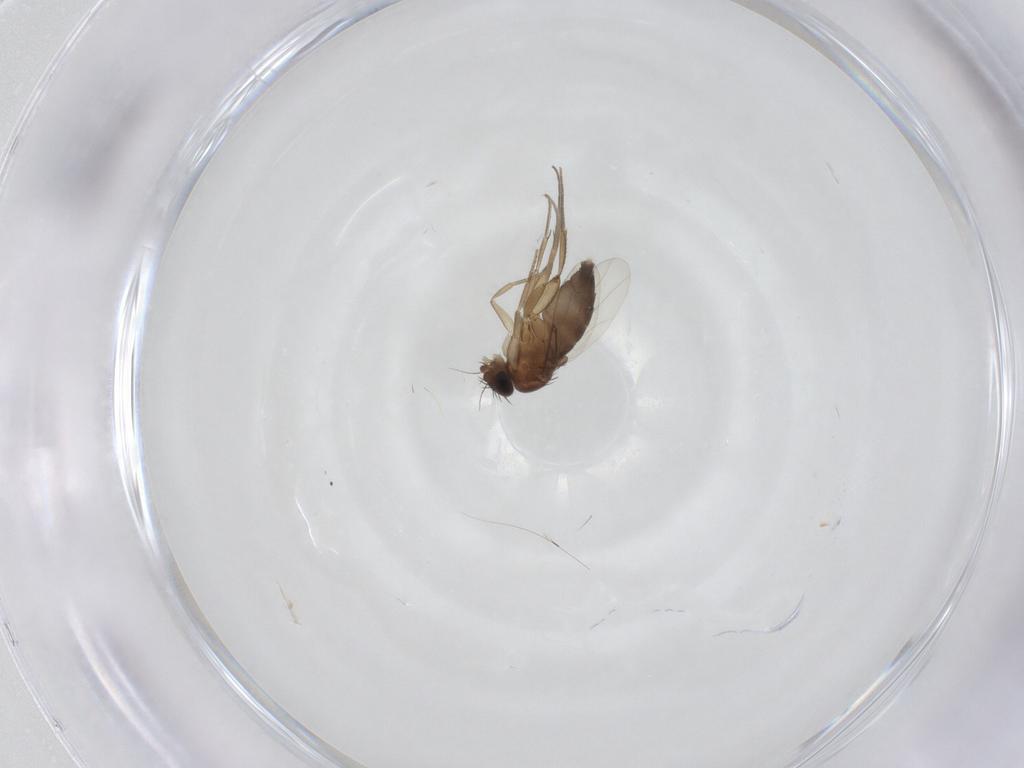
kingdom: Animalia
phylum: Arthropoda
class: Insecta
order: Diptera
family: Phoridae
